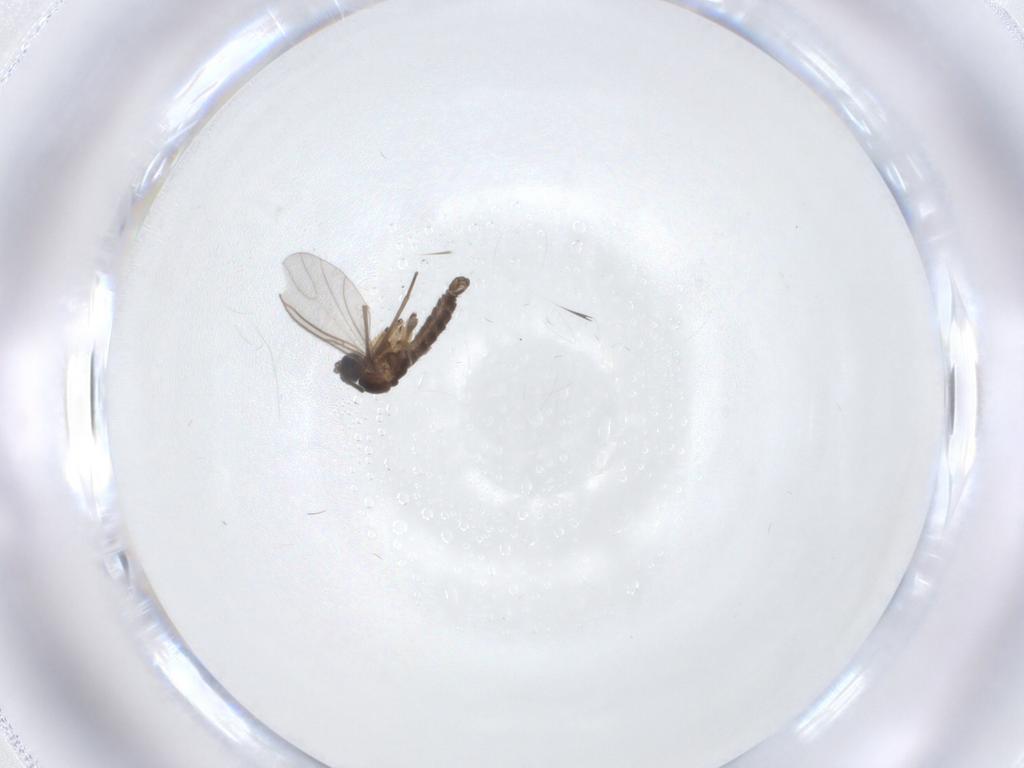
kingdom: Animalia
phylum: Arthropoda
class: Insecta
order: Diptera
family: Sciaridae
